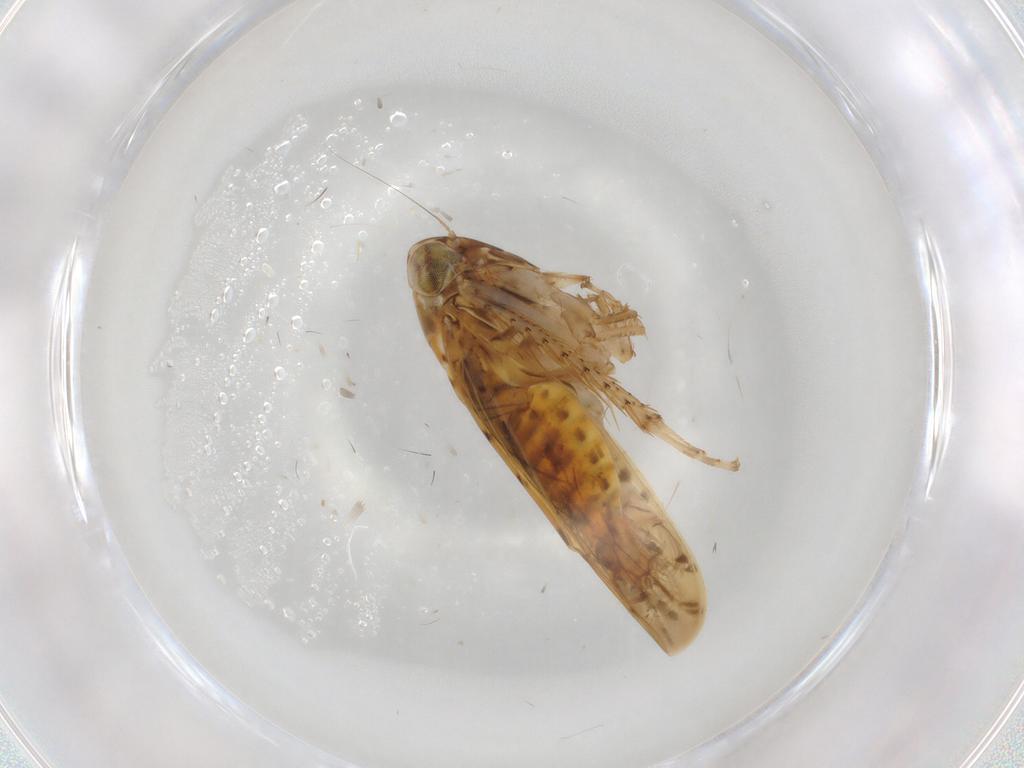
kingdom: Animalia
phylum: Arthropoda
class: Insecta
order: Hemiptera
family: Cicadellidae
